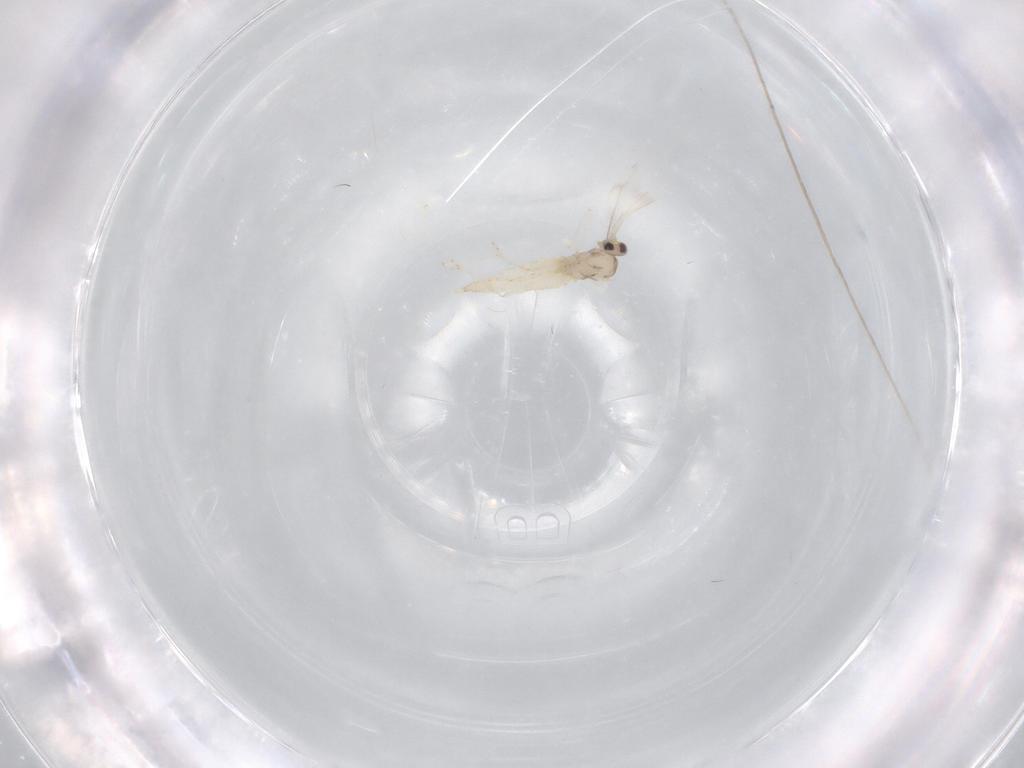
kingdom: Animalia
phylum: Arthropoda
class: Insecta
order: Diptera
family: Cecidomyiidae
